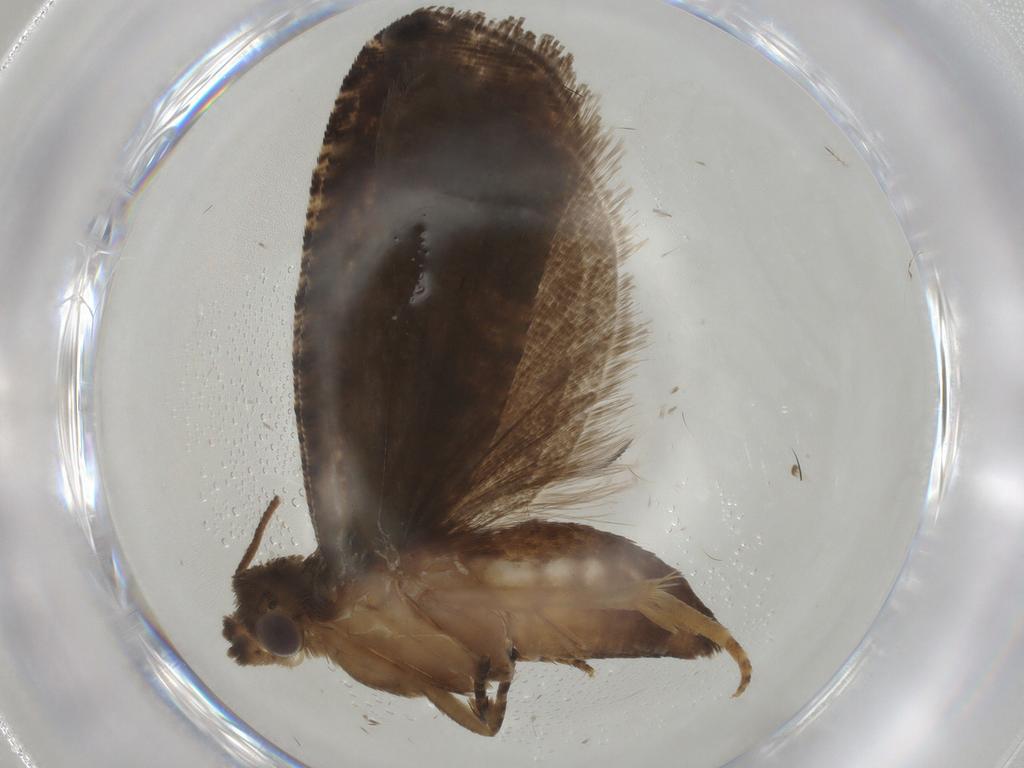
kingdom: Animalia
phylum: Arthropoda
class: Insecta
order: Lepidoptera
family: Tortricidae
